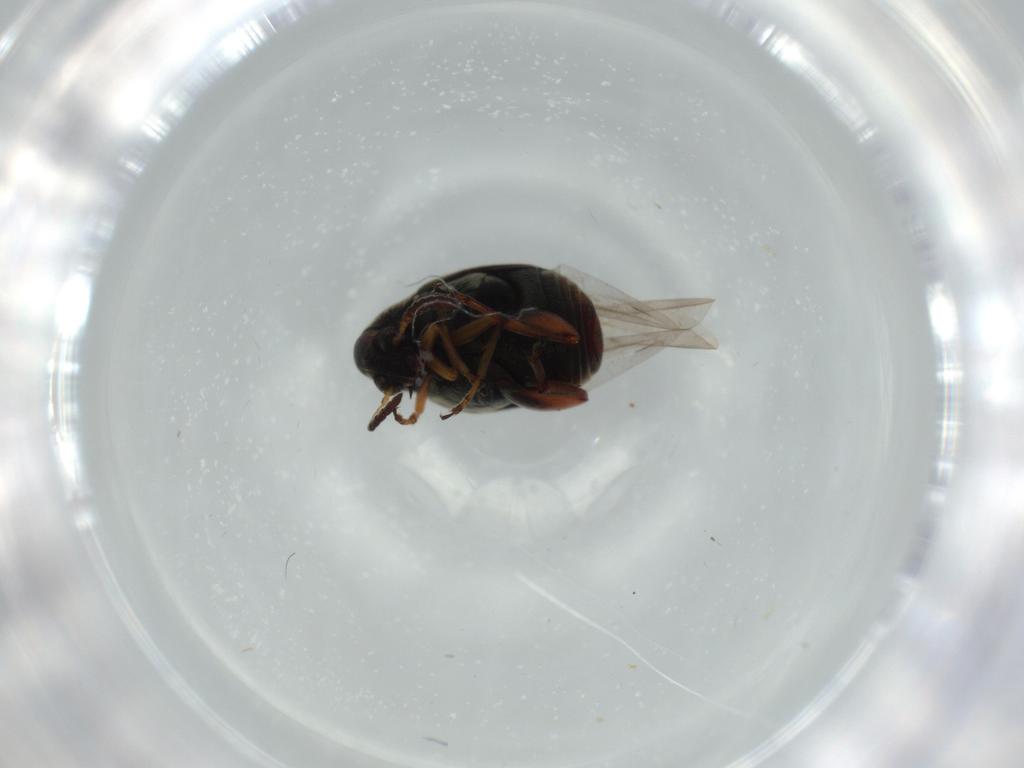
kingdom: Animalia
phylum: Arthropoda
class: Insecta
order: Coleoptera
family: Chrysomelidae
